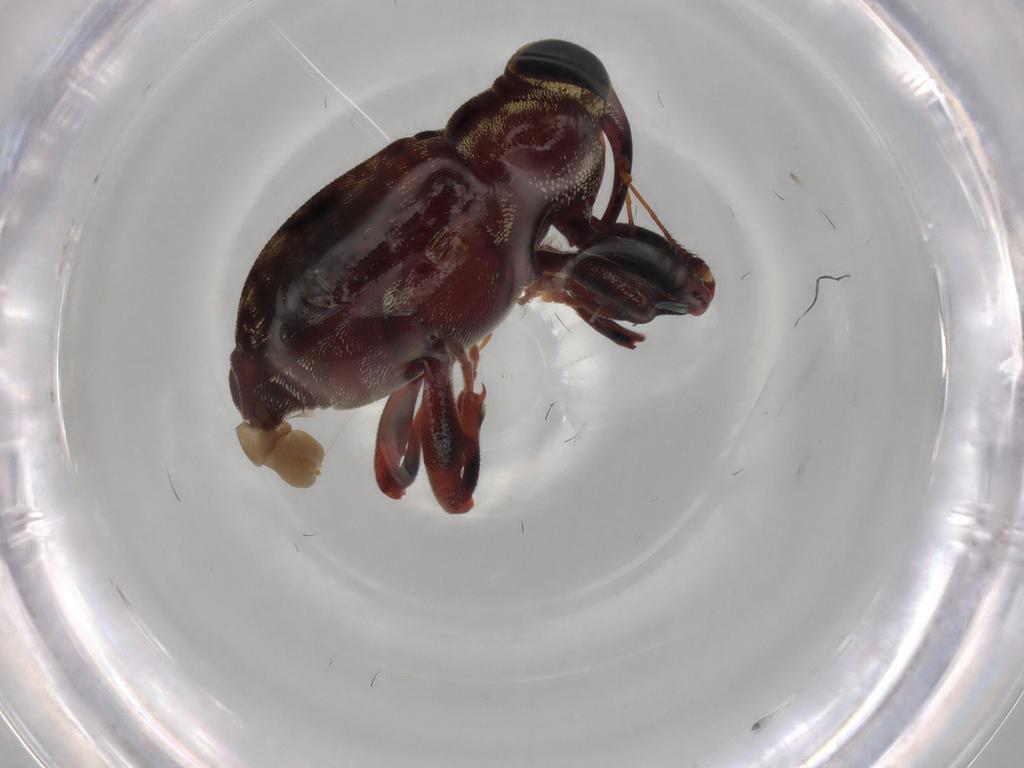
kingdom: Animalia
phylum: Arthropoda
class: Insecta
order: Coleoptera
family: Curculionidae
